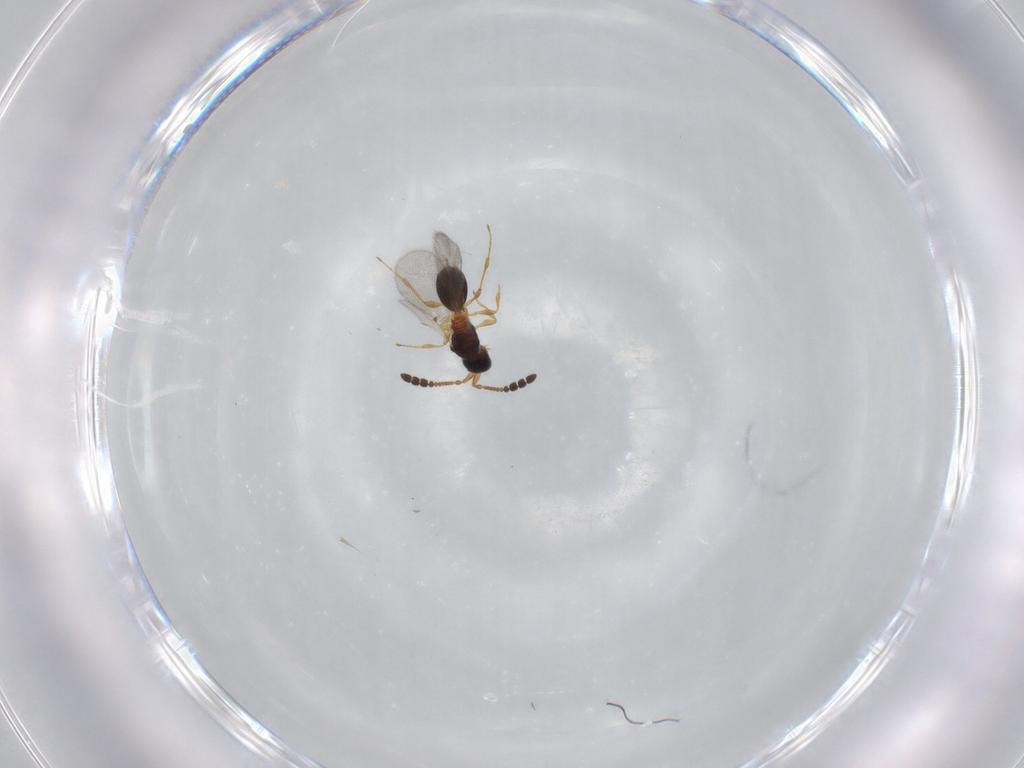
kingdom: Animalia
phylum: Arthropoda
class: Insecta
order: Hymenoptera
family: Diapriidae
